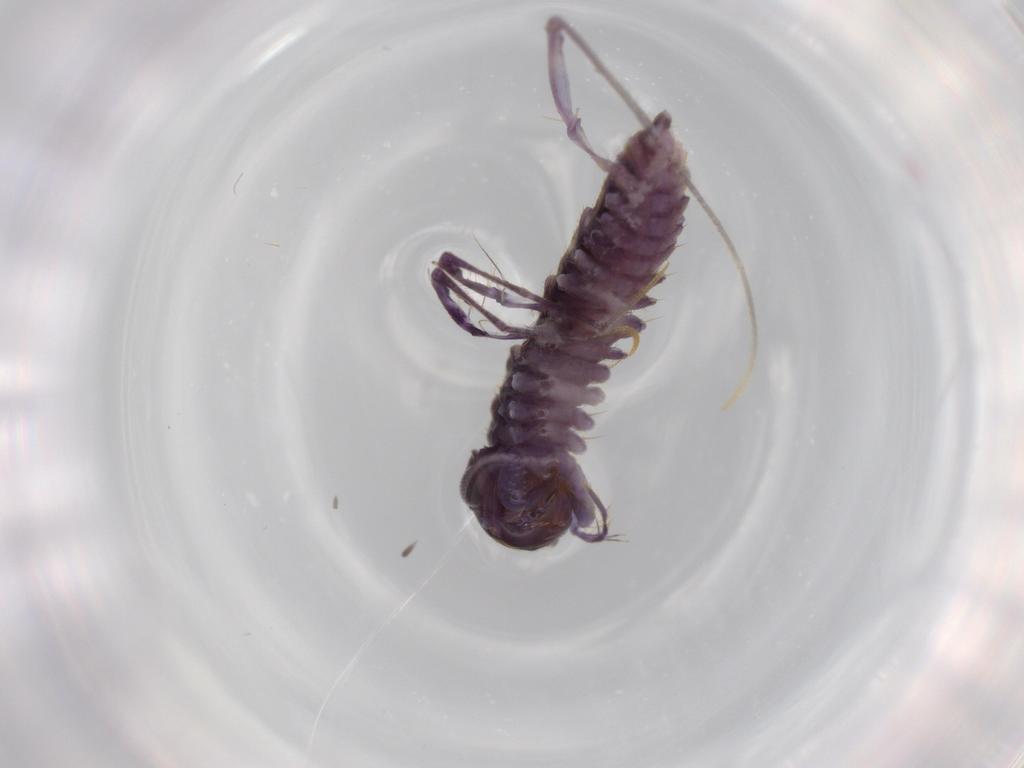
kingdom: Animalia
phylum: Arthropoda
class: Chilopoda
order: Scutigeromorpha
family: Scutigeridae
